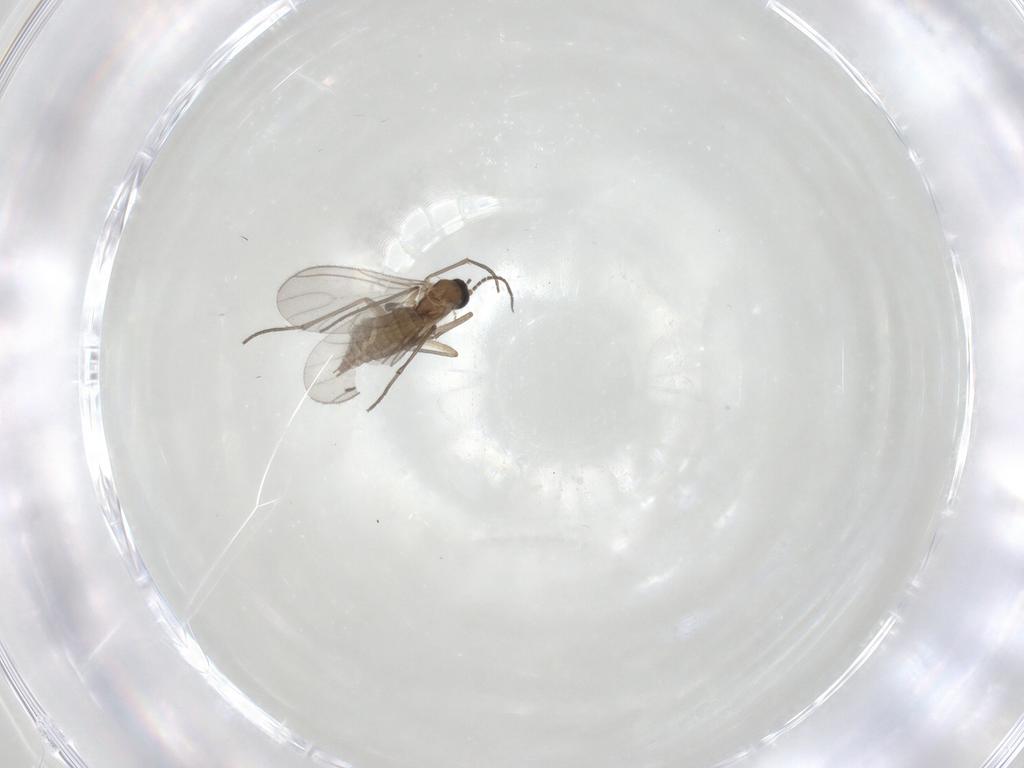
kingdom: Animalia
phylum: Arthropoda
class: Insecta
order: Diptera
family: Sciaridae
